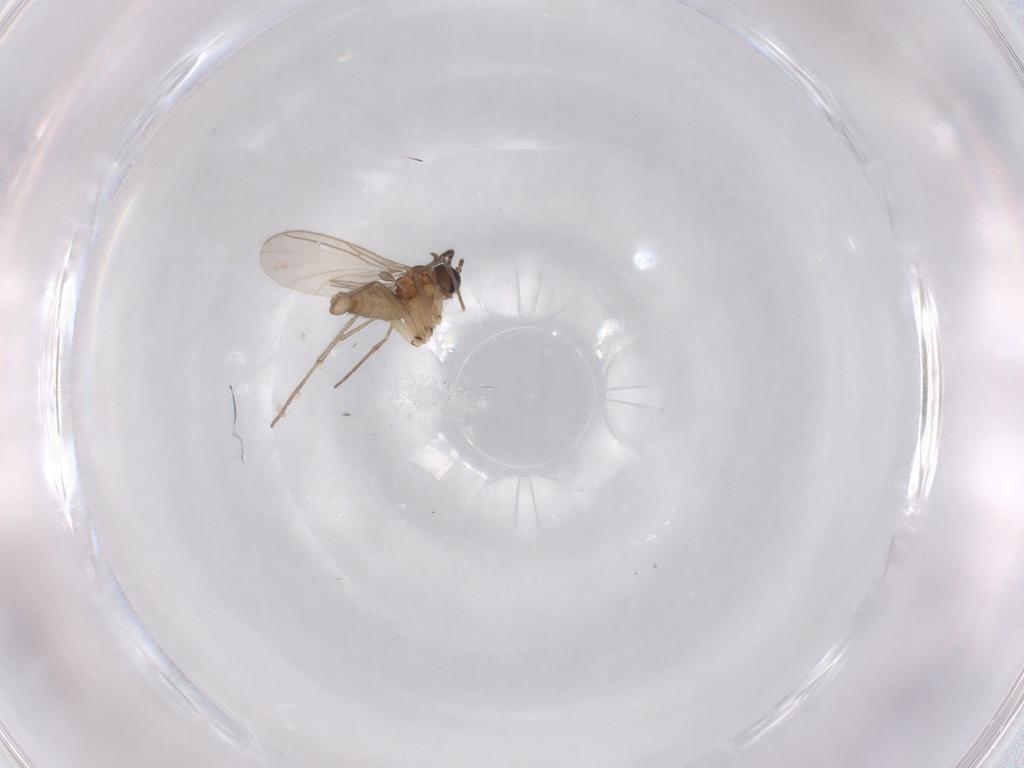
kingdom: Animalia
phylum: Arthropoda
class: Insecta
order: Diptera
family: Sciaridae
